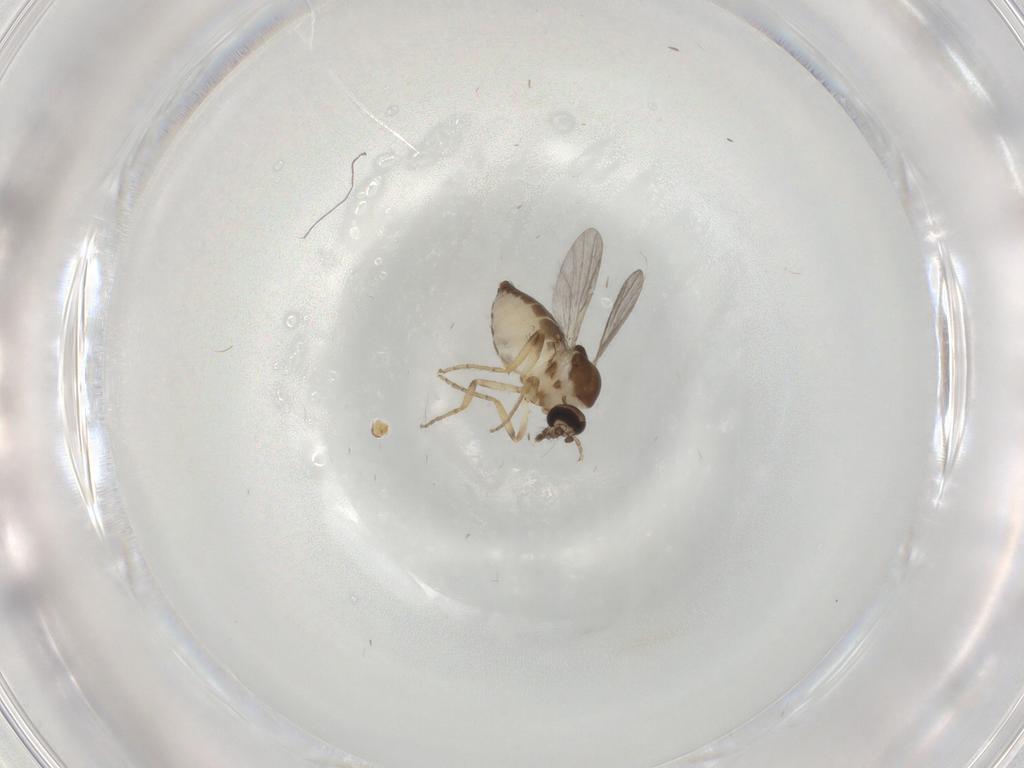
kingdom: Animalia
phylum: Arthropoda
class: Insecta
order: Diptera
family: Ceratopogonidae
